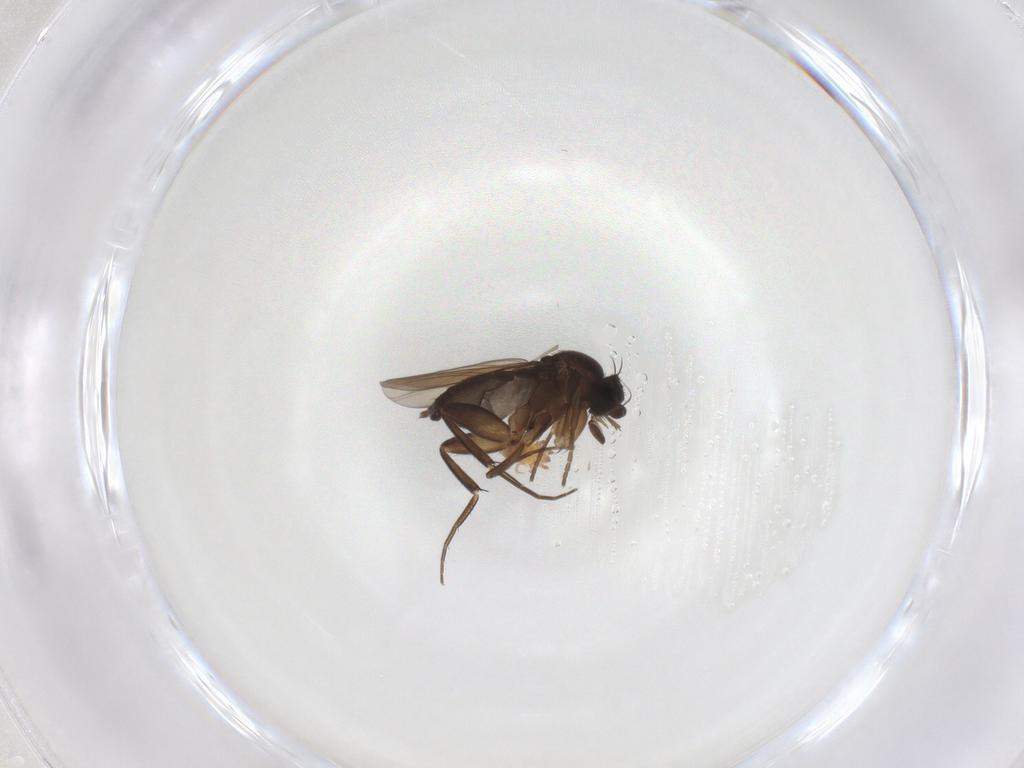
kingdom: Animalia
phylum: Arthropoda
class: Insecta
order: Diptera
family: Phoridae
